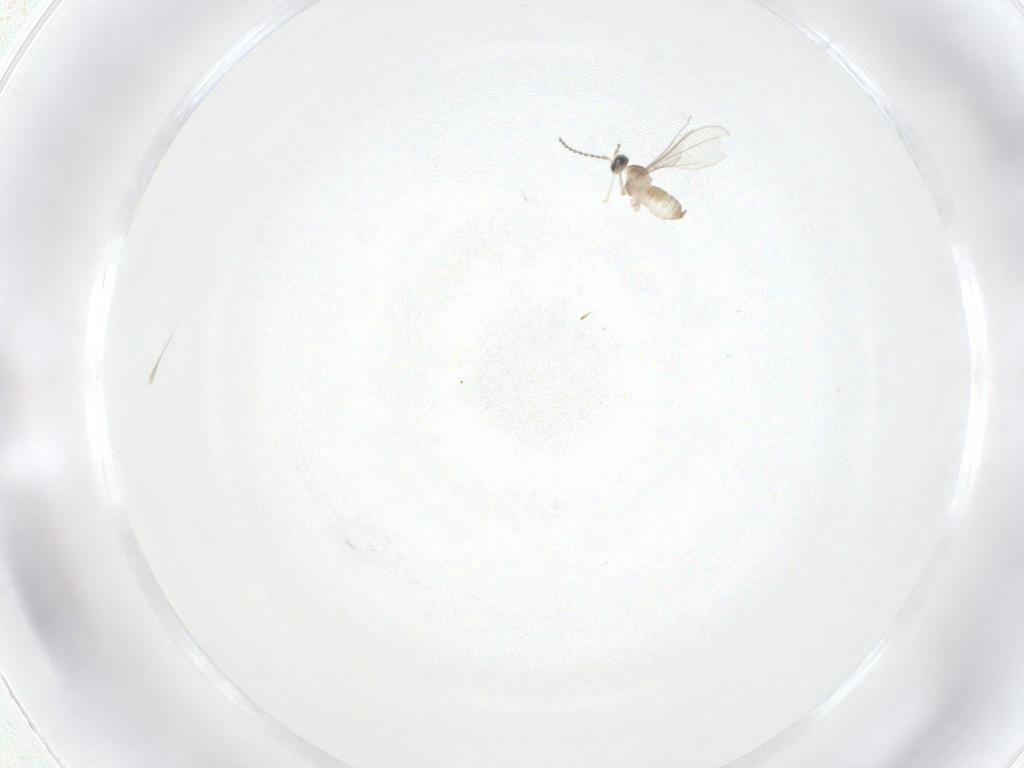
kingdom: Animalia
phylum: Arthropoda
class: Insecta
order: Diptera
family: Cecidomyiidae
